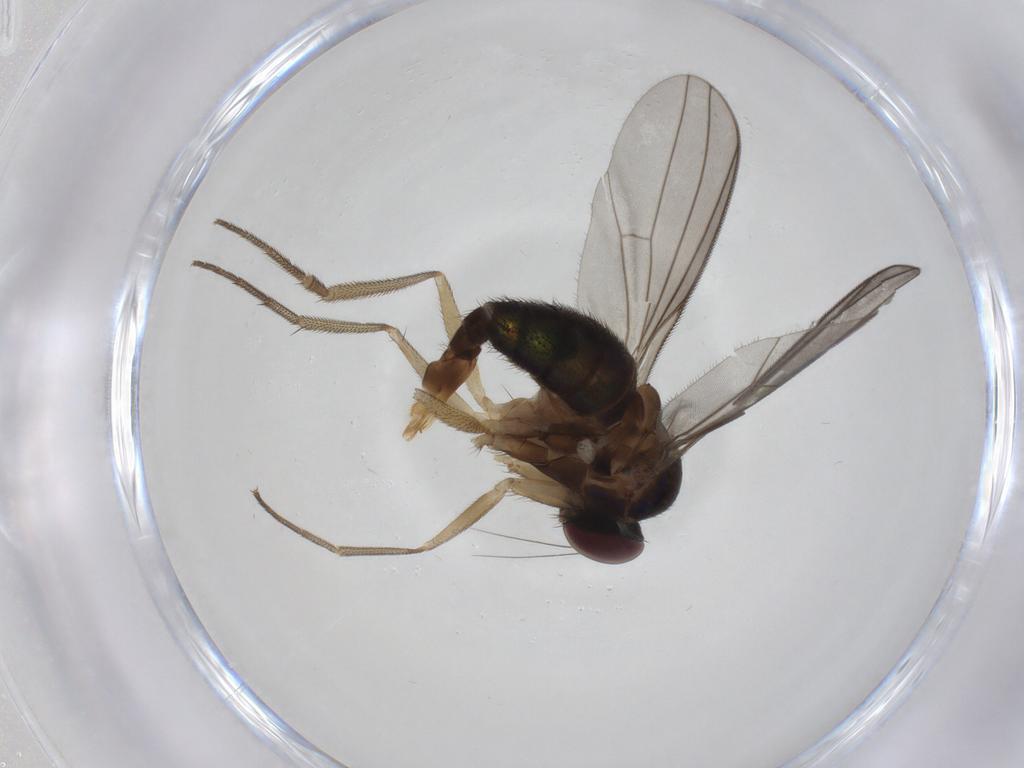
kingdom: Animalia
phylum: Arthropoda
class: Insecta
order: Diptera
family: Psychodidae
